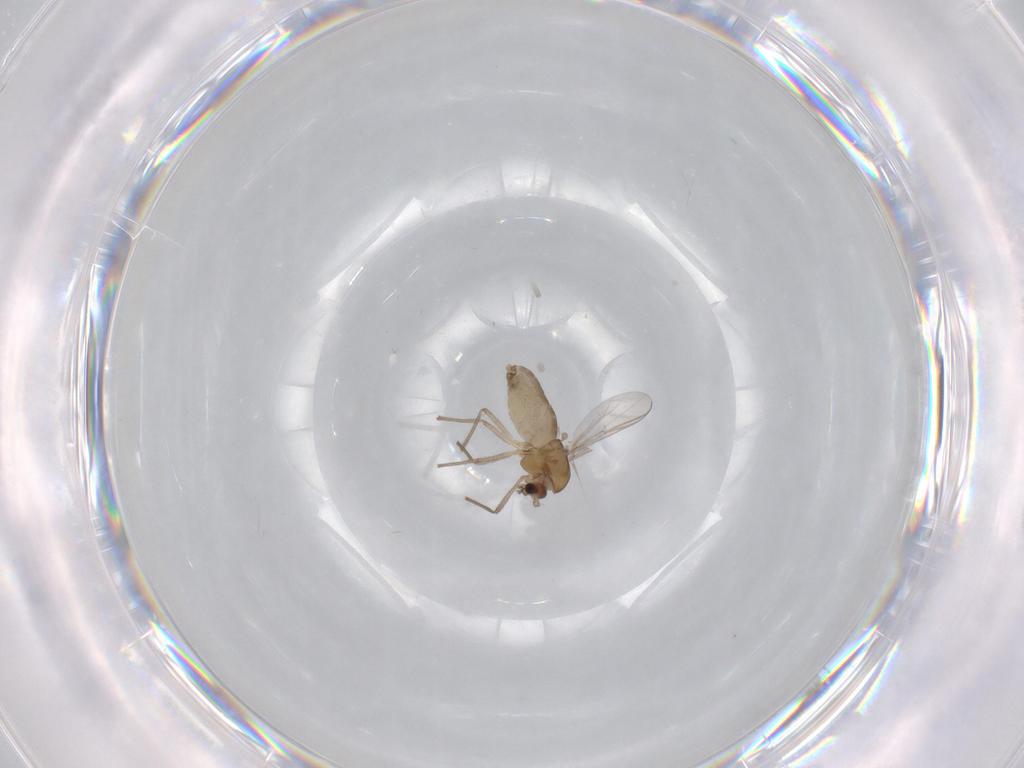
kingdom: Animalia
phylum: Arthropoda
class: Insecta
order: Diptera
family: Chironomidae
